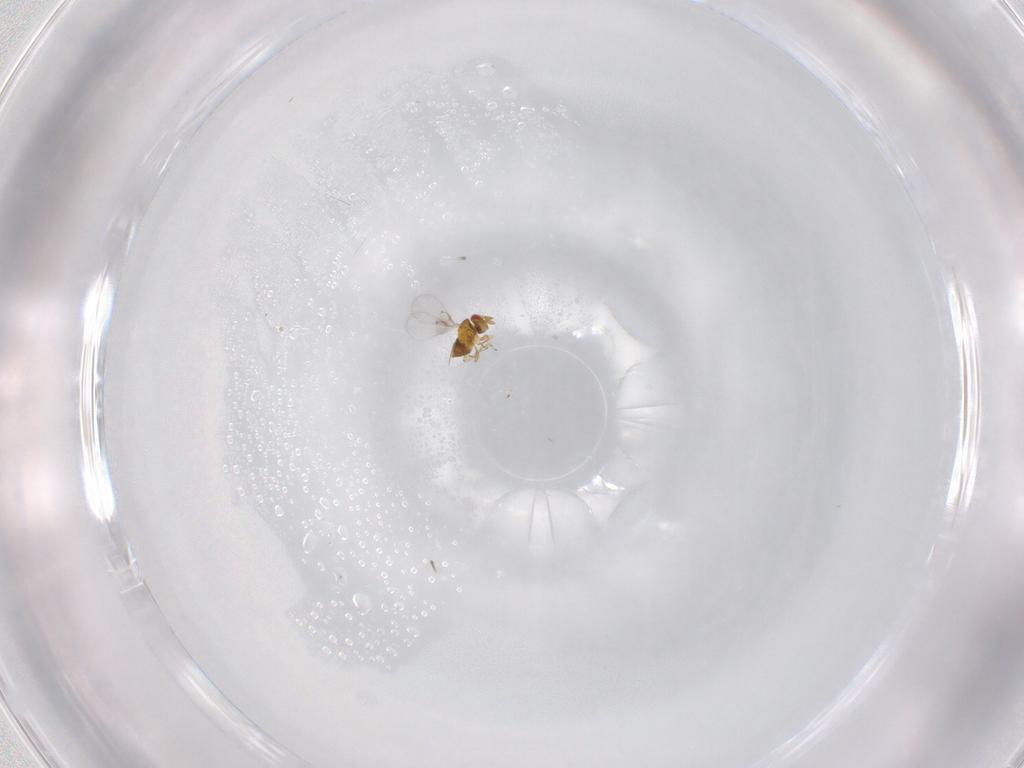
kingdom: Animalia
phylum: Arthropoda
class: Insecta
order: Hymenoptera
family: Trichogrammatidae
